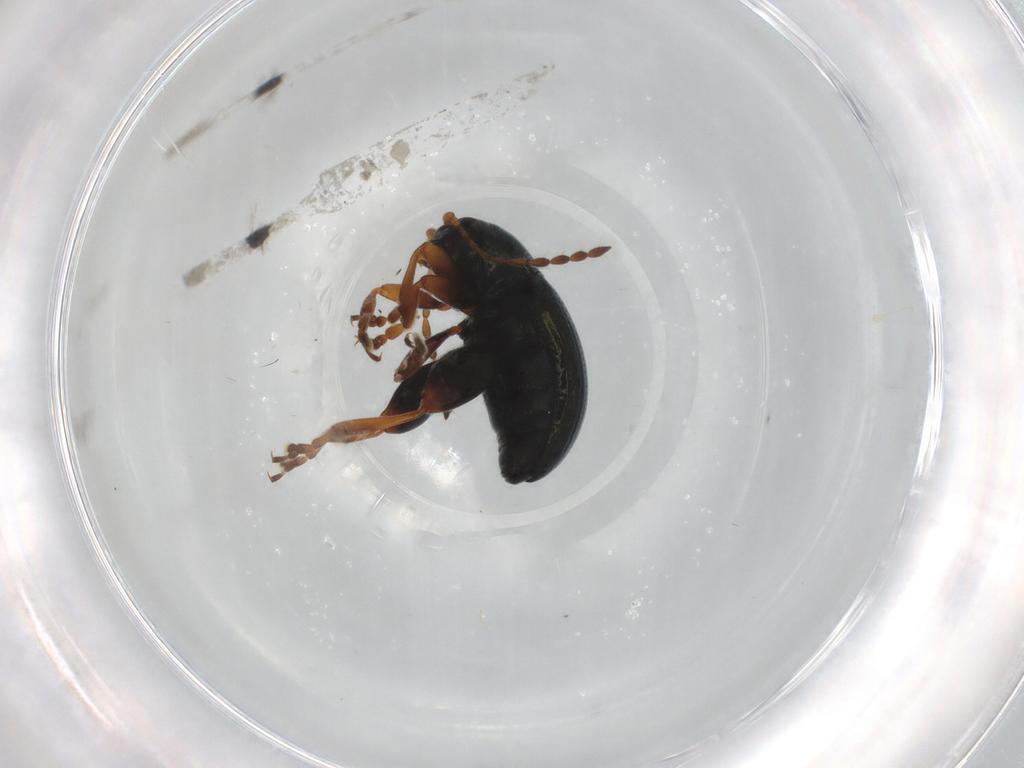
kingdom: Animalia
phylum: Arthropoda
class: Insecta
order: Coleoptera
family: Chrysomelidae
